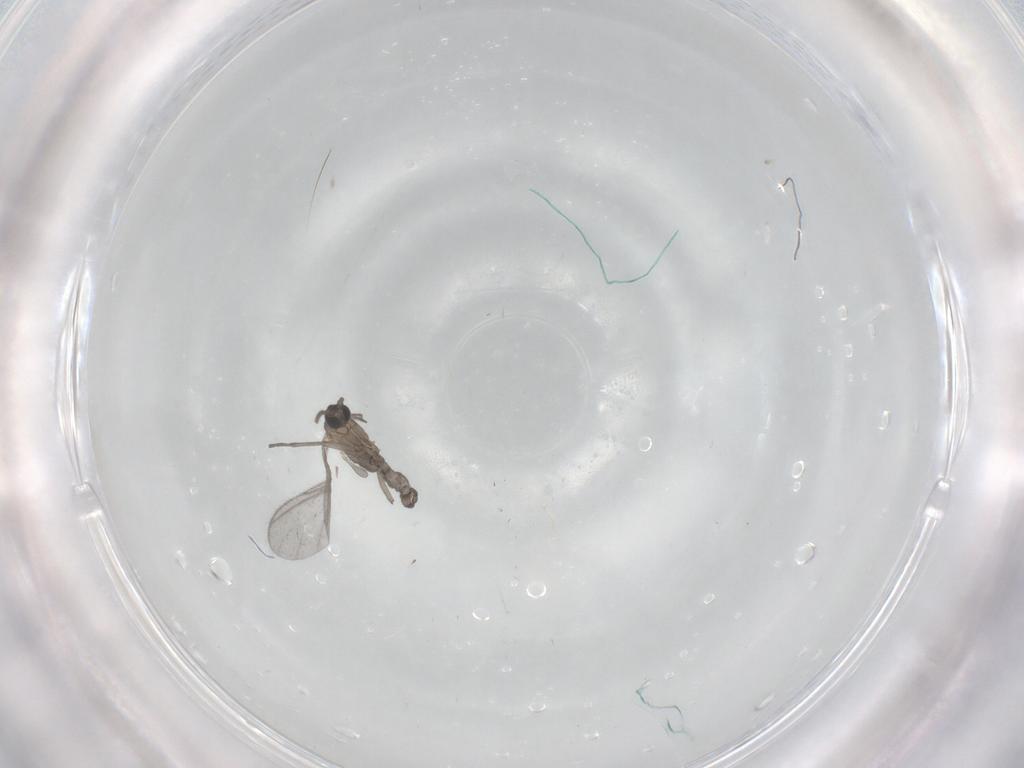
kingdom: Animalia
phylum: Arthropoda
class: Insecta
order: Diptera
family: Sciaridae
